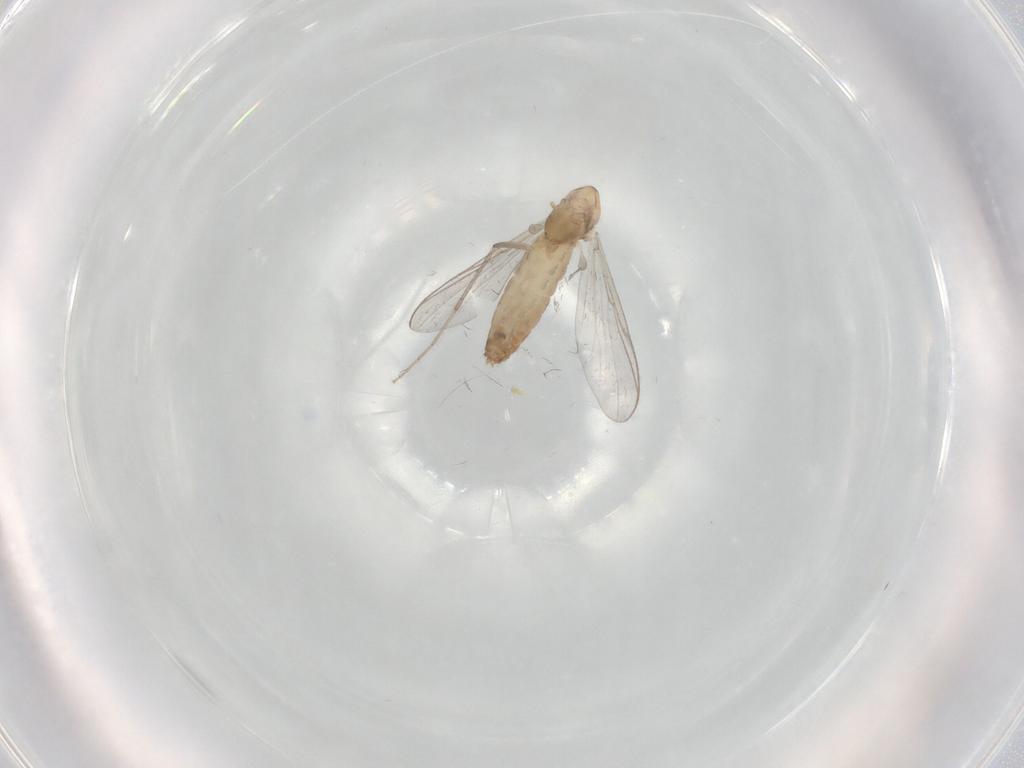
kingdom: Animalia
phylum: Arthropoda
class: Insecta
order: Diptera
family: Chironomidae
